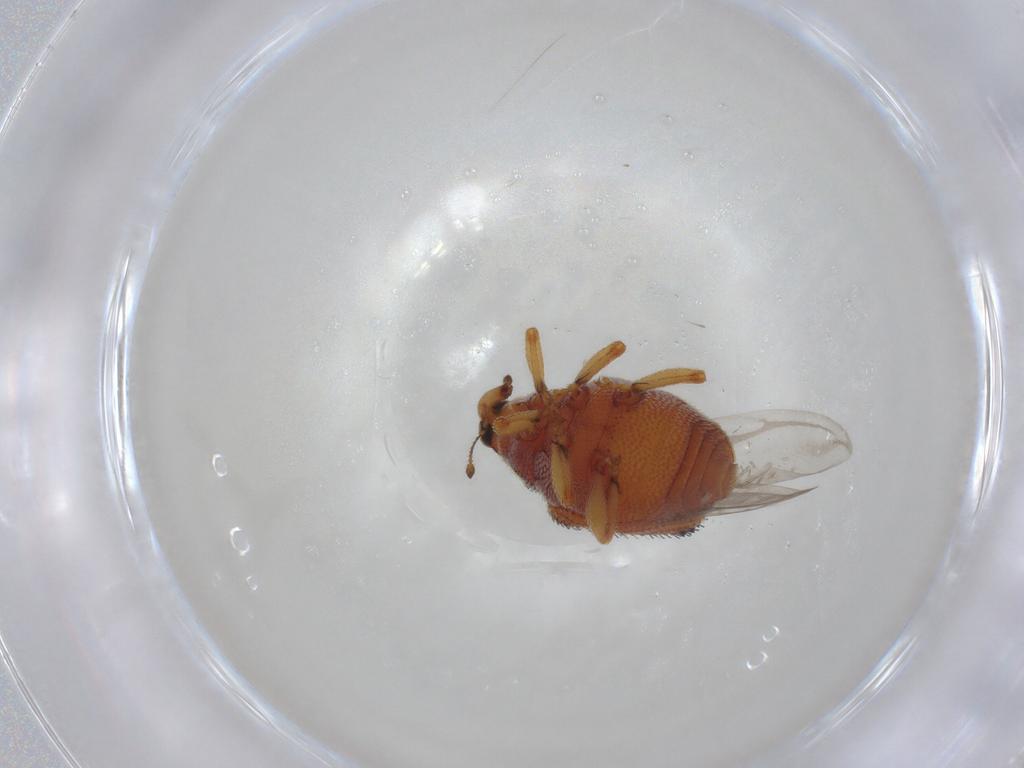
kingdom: Animalia
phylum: Arthropoda
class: Insecta
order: Coleoptera
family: Curculionidae
